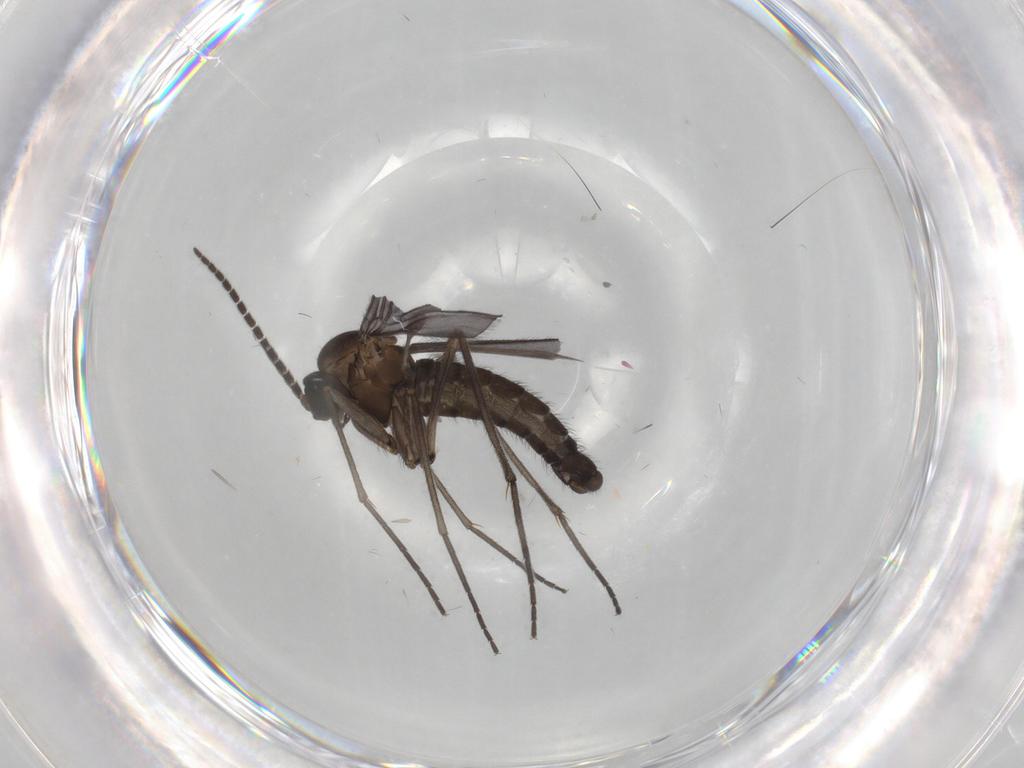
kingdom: Animalia
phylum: Arthropoda
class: Insecta
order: Diptera
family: Sciaridae
